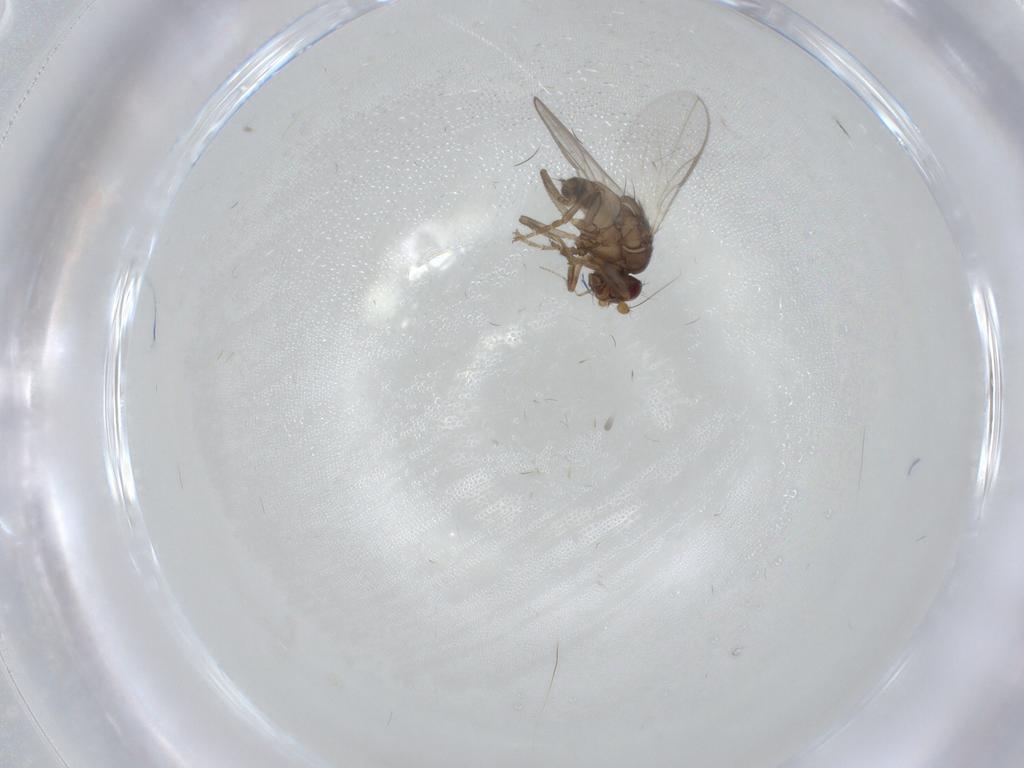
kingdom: Animalia
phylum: Arthropoda
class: Insecta
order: Diptera
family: Sphaeroceridae
